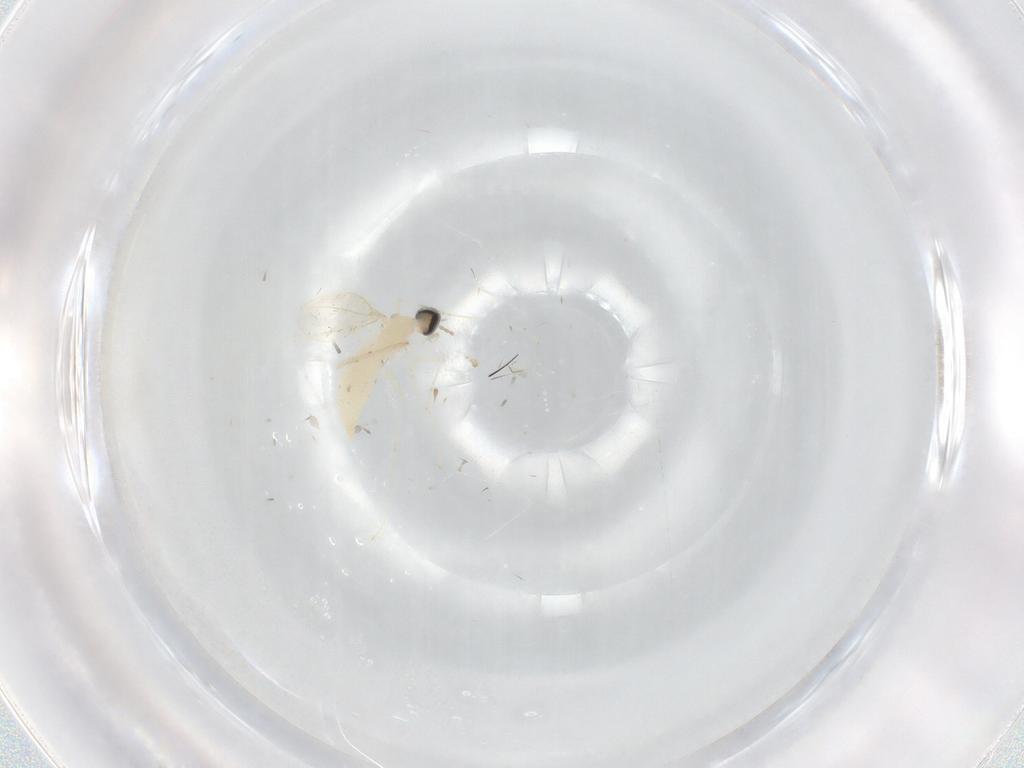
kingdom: Animalia
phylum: Arthropoda
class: Insecta
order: Diptera
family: Cecidomyiidae
